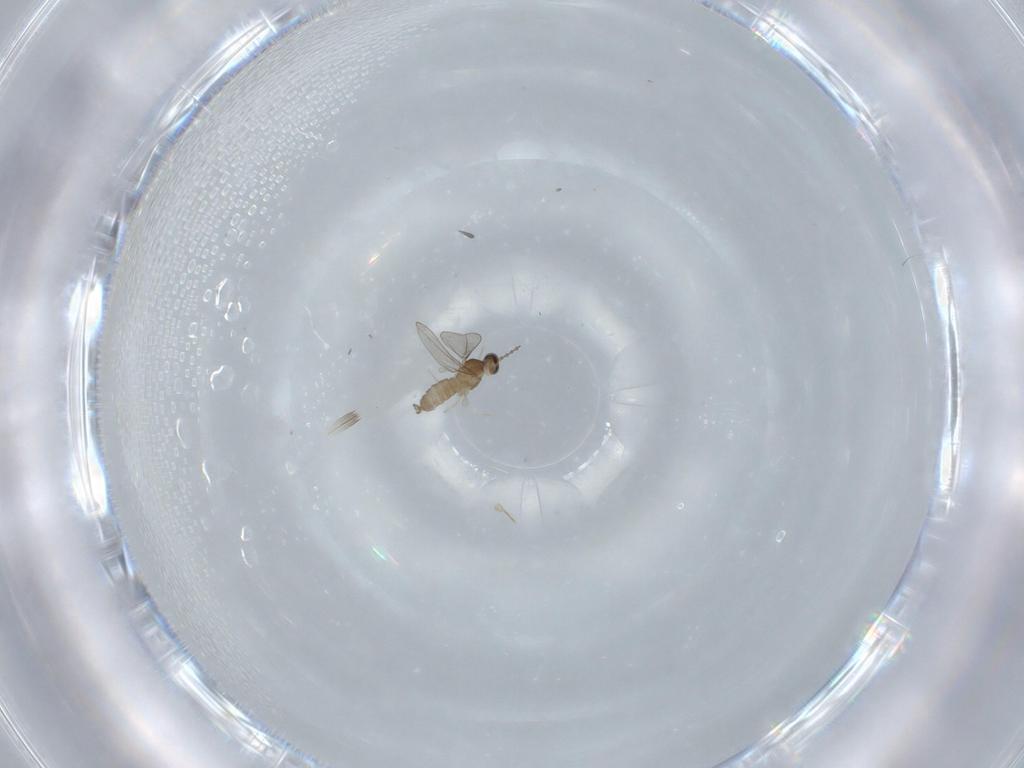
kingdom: Animalia
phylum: Arthropoda
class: Insecta
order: Diptera
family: Cecidomyiidae
